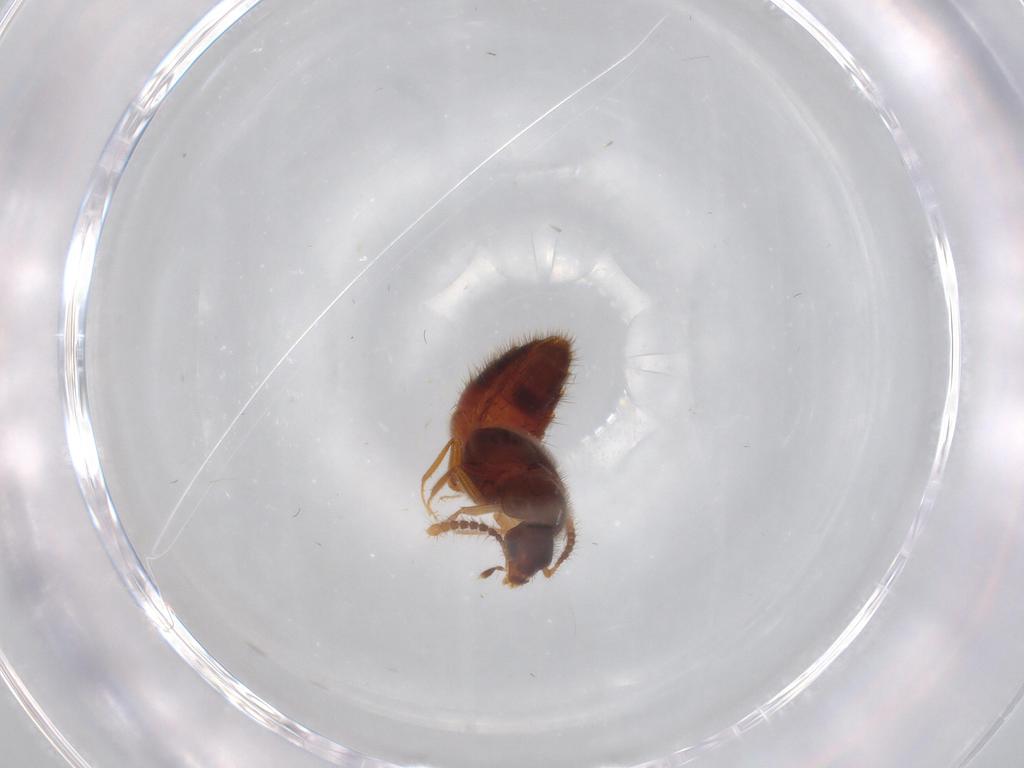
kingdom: Animalia
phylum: Arthropoda
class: Insecta
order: Coleoptera
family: Staphylinidae
